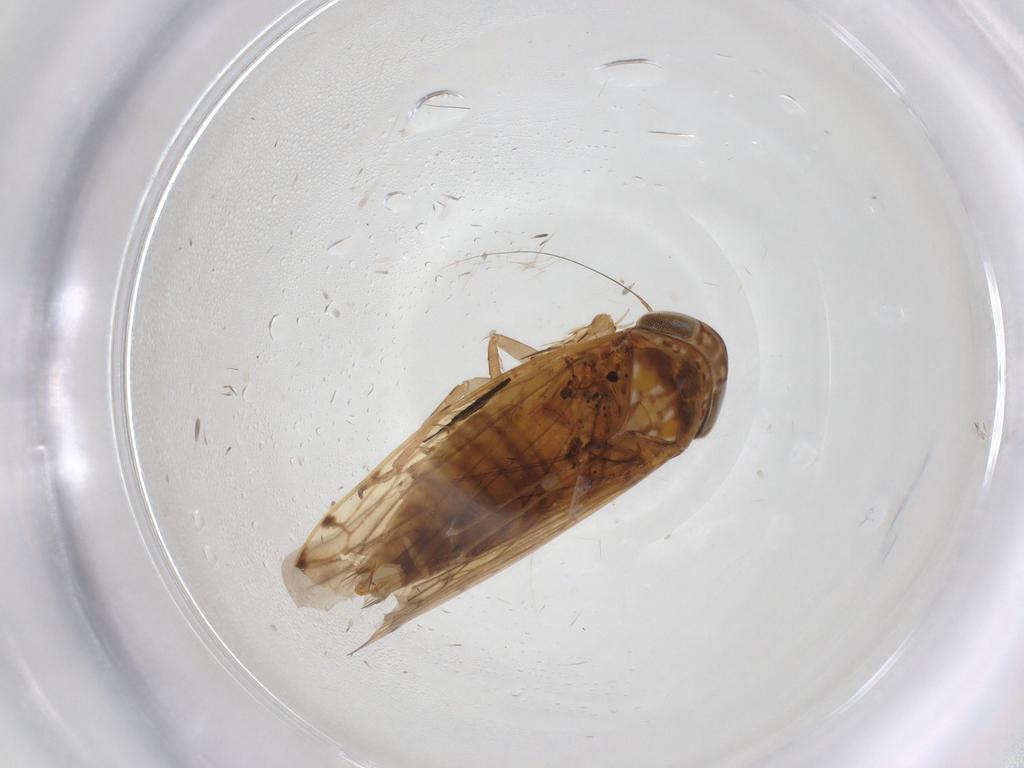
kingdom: Animalia
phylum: Arthropoda
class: Insecta
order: Hemiptera
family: Cicadellidae
